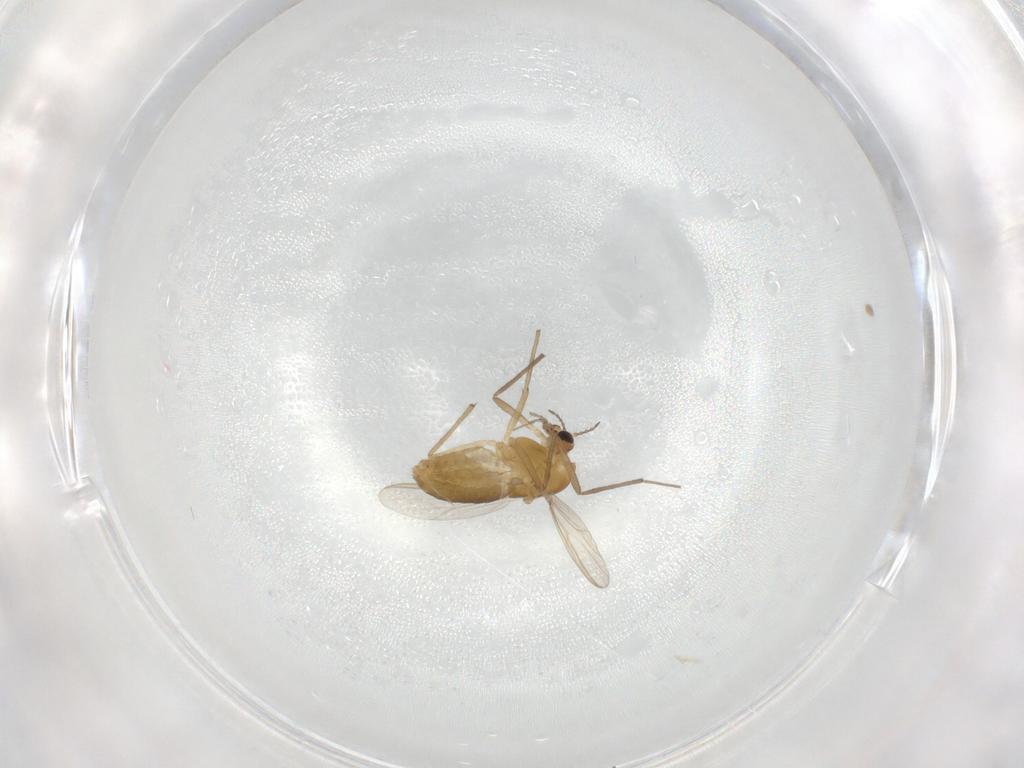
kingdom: Animalia
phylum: Arthropoda
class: Insecta
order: Diptera
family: Chironomidae
